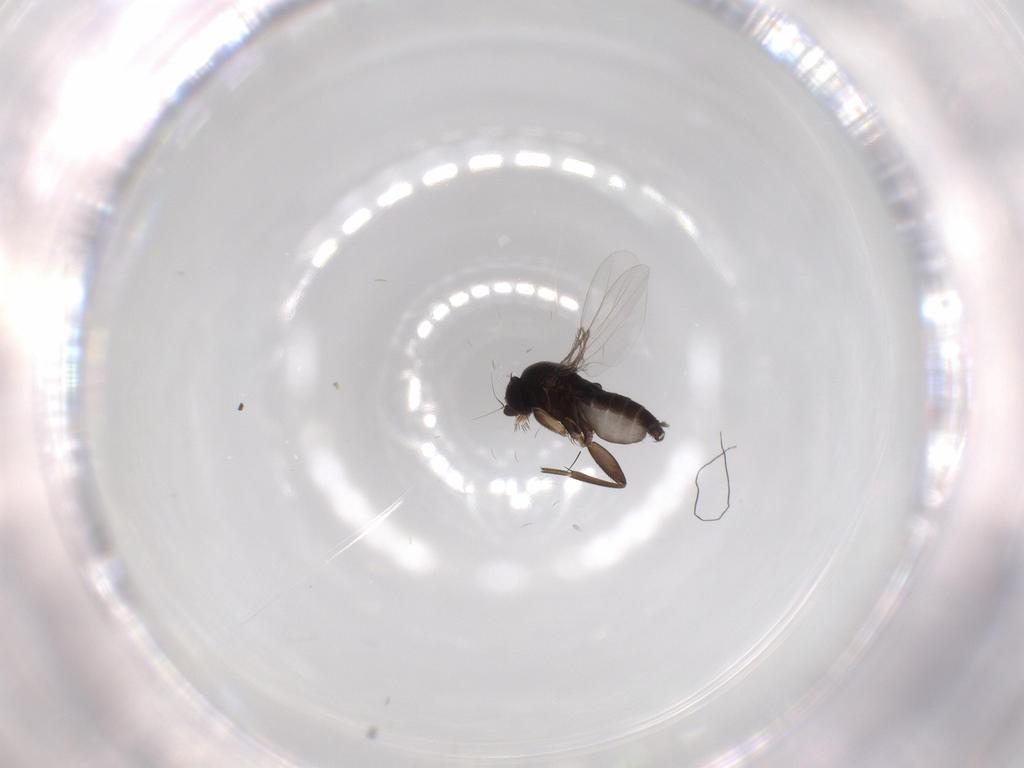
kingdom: Animalia
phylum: Arthropoda
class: Insecta
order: Diptera
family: Phoridae
